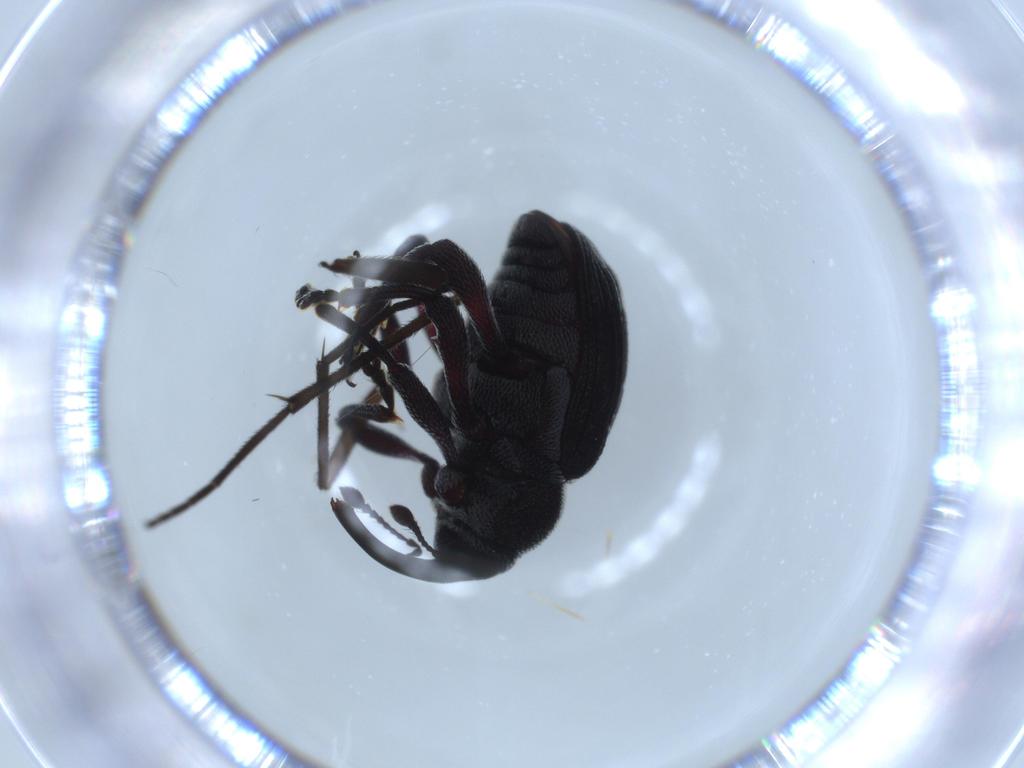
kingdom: Animalia
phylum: Arthropoda
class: Insecta
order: Coleoptera
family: Curculionidae
